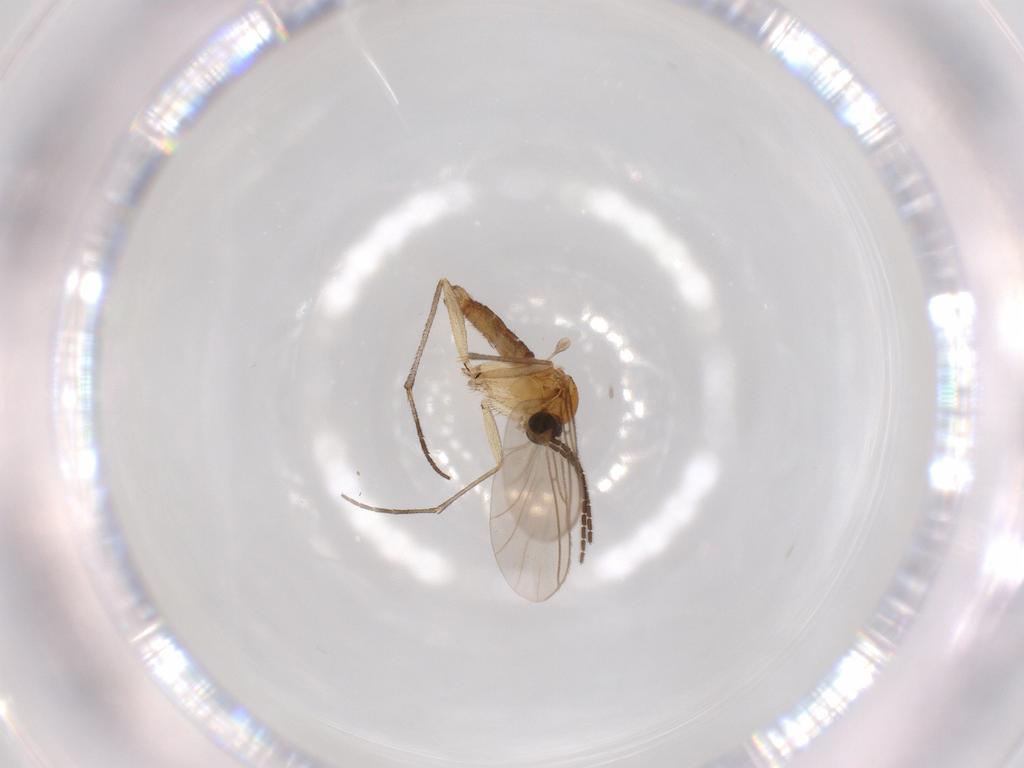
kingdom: Animalia
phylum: Arthropoda
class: Insecta
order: Diptera
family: Sciaridae
